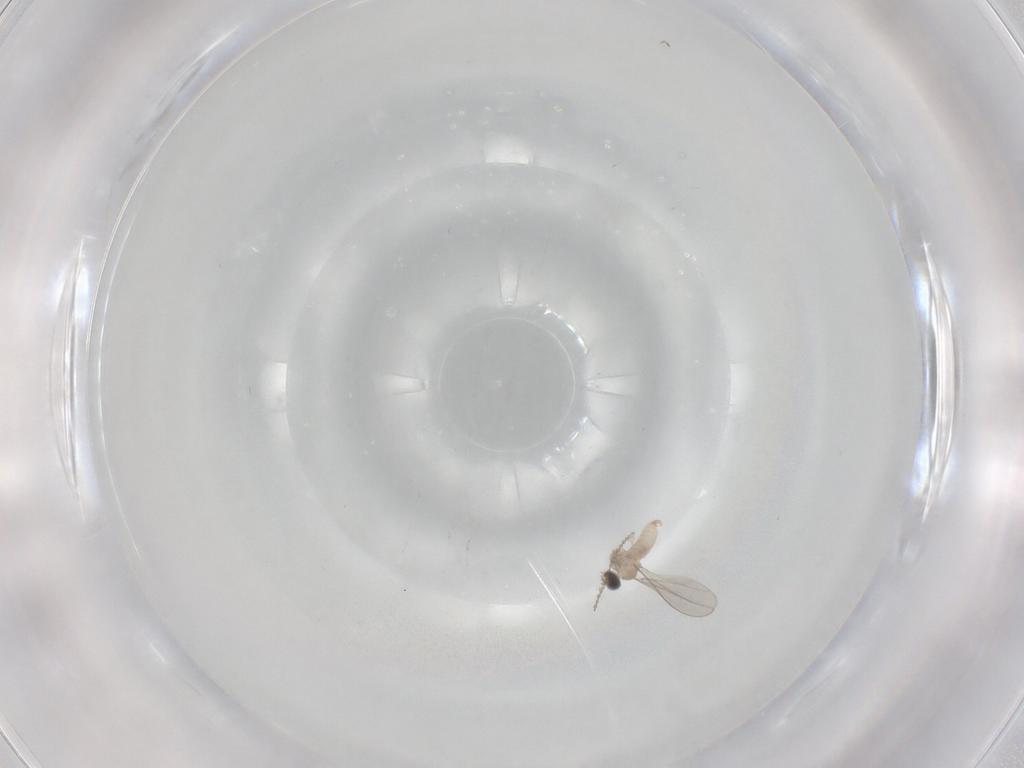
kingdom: Animalia
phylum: Arthropoda
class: Insecta
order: Diptera
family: Cecidomyiidae
